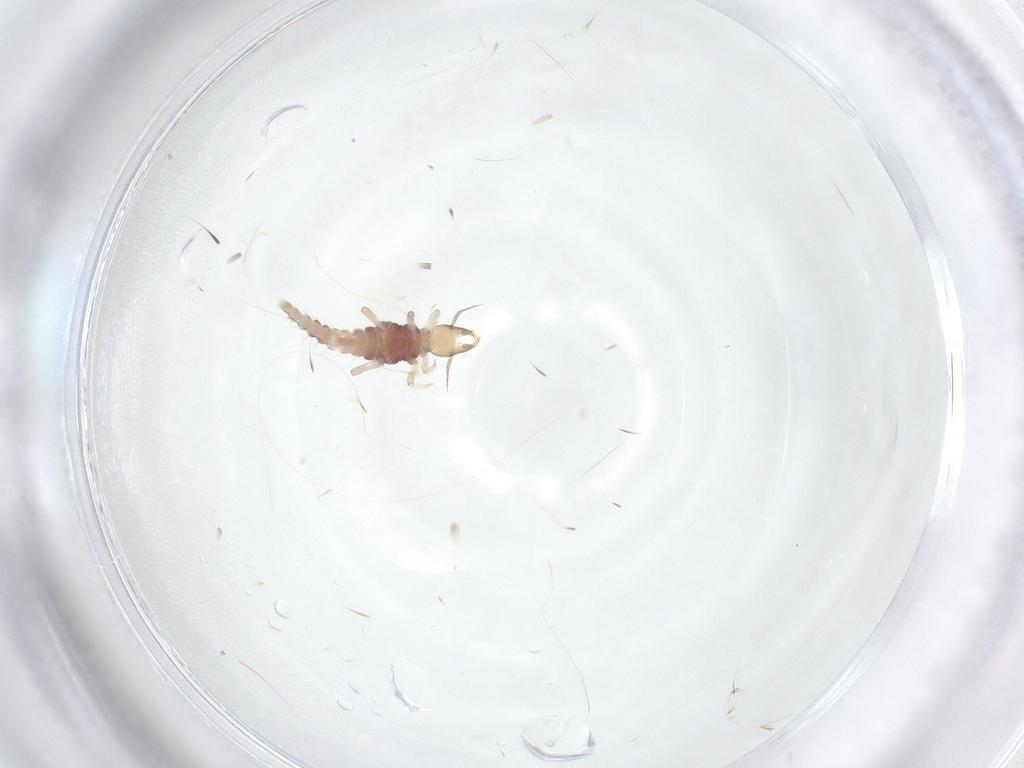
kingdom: Animalia
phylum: Arthropoda
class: Insecta
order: Neuroptera
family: Hemerobiidae
